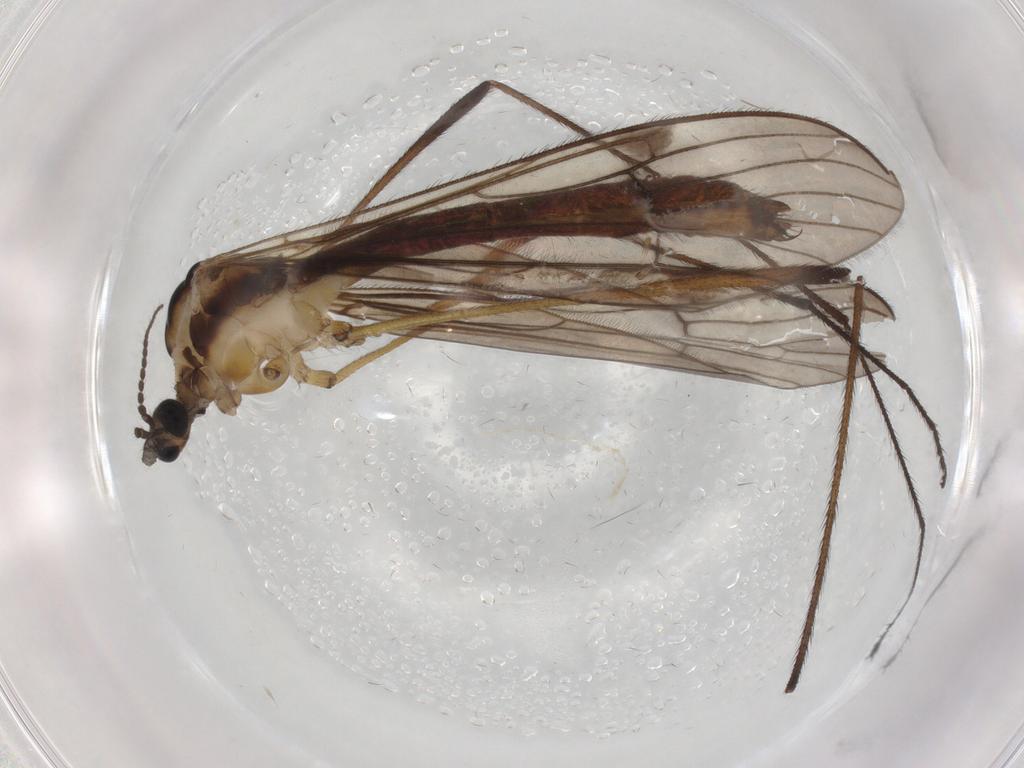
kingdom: Animalia
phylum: Arthropoda
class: Insecta
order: Diptera
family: Limoniidae
